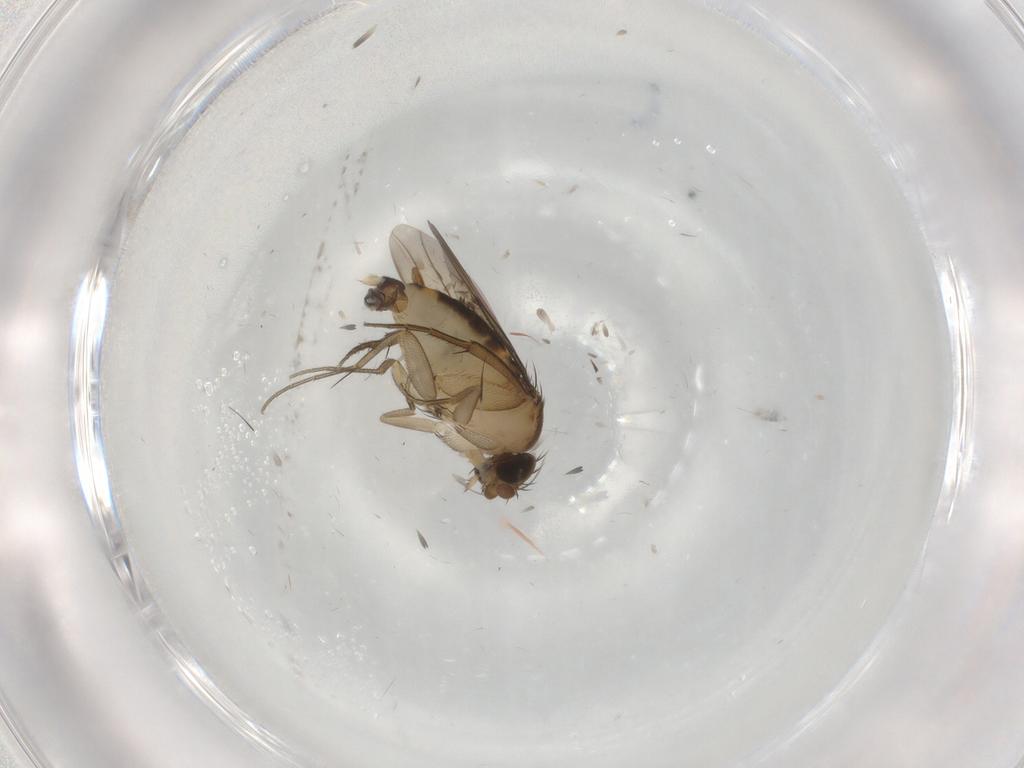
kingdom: Animalia
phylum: Arthropoda
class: Insecta
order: Diptera
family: Ceratopogonidae
